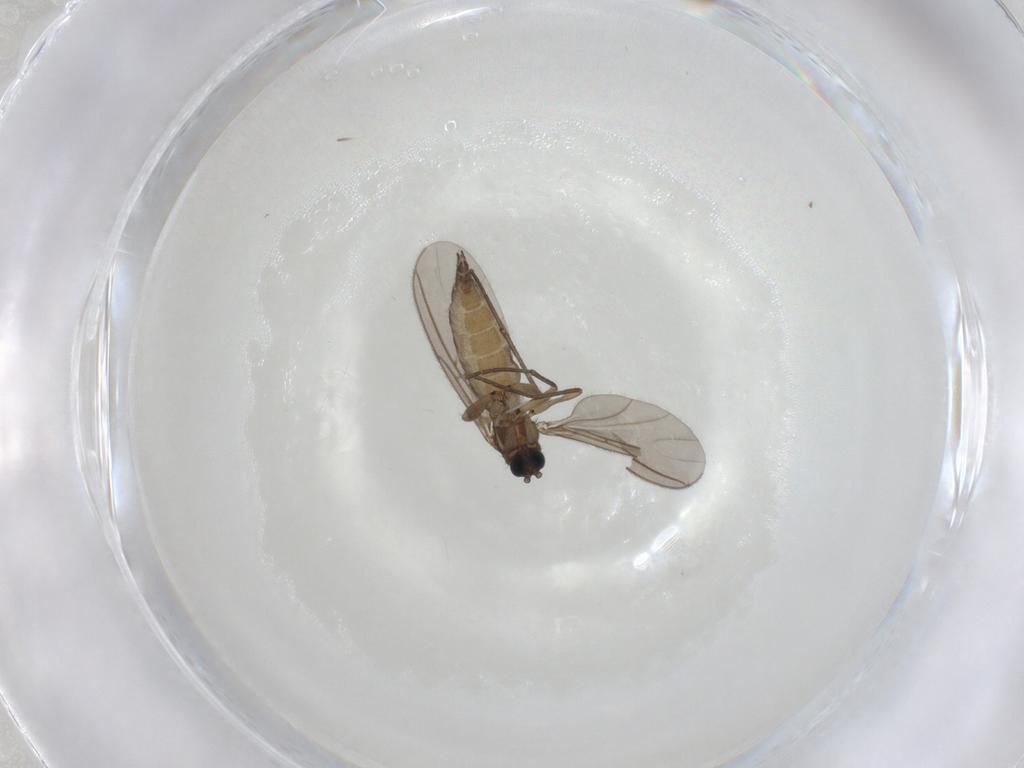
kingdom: Animalia
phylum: Arthropoda
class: Insecta
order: Diptera
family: Sciaridae
